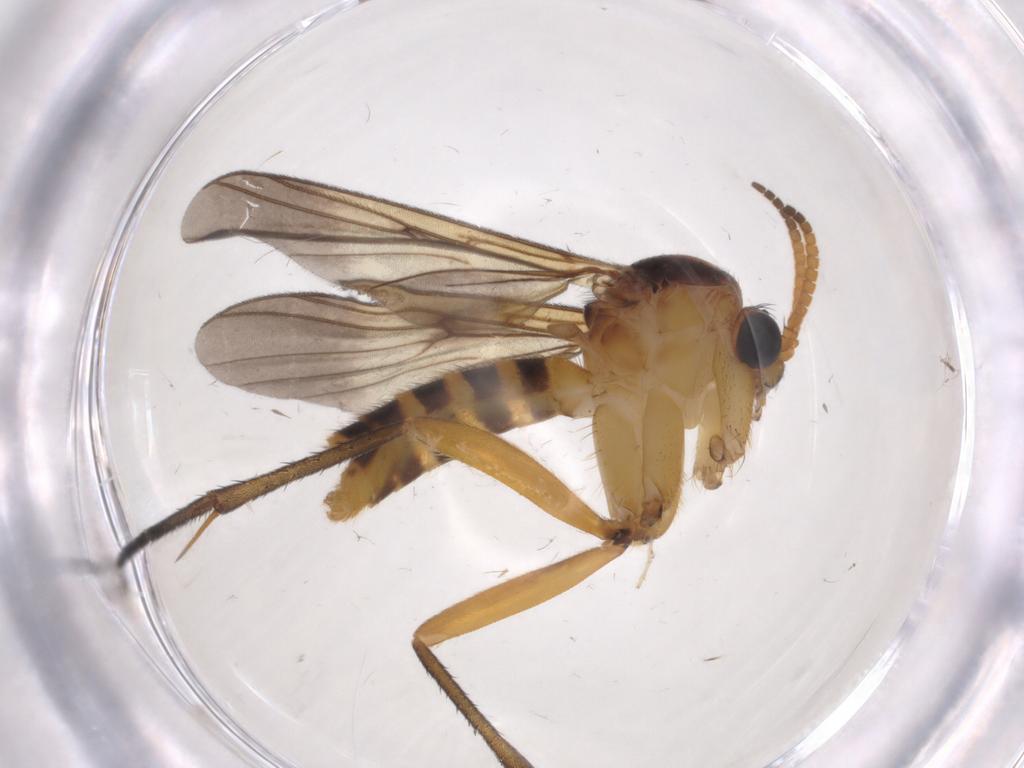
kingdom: Animalia
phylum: Arthropoda
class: Insecta
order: Diptera
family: Mycetophilidae
